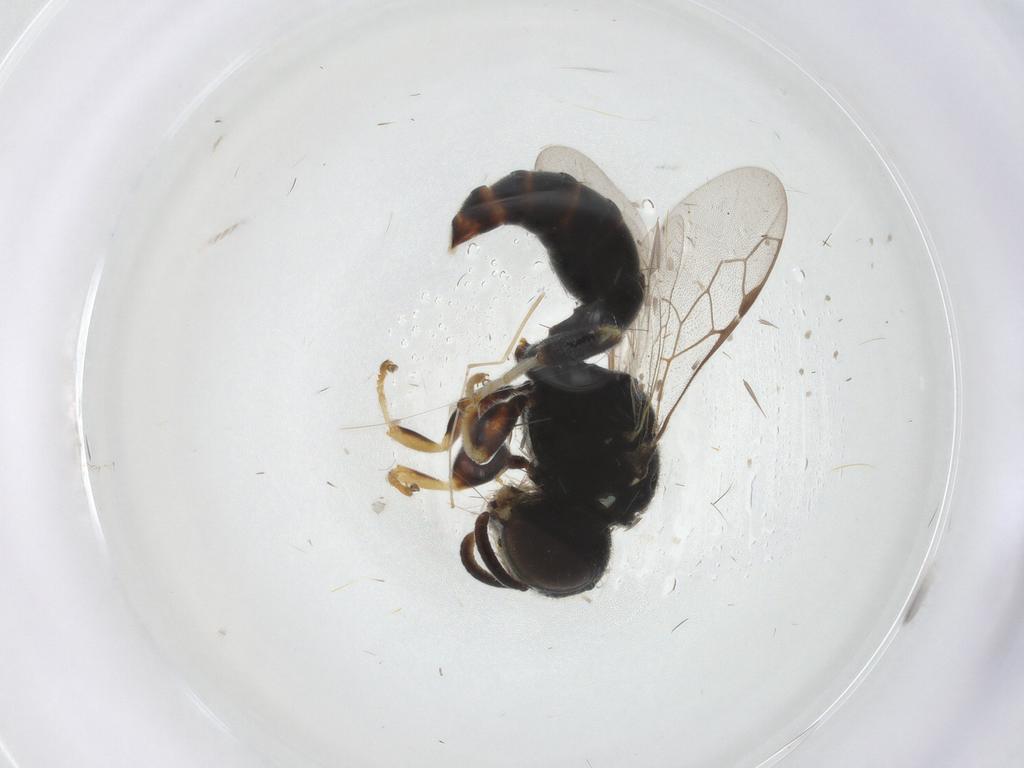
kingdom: Animalia
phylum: Arthropoda
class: Insecta
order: Hymenoptera
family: Crabronidae
